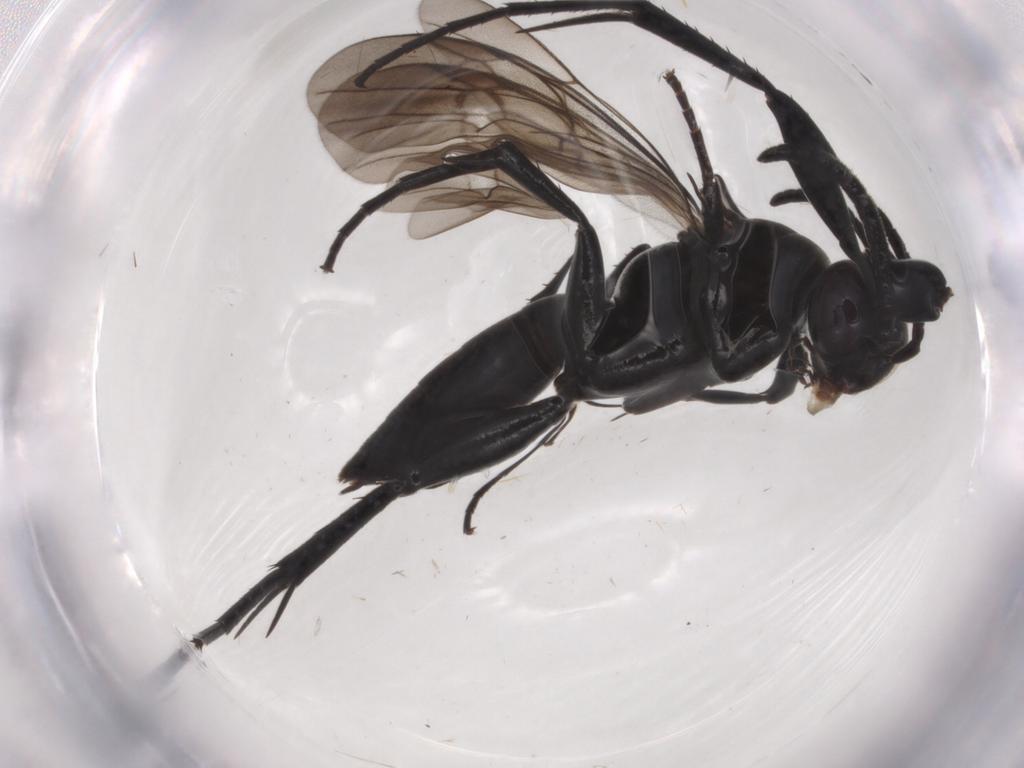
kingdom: Animalia
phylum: Arthropoda
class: Insecta
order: Hymenoptera
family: Pompilidae
